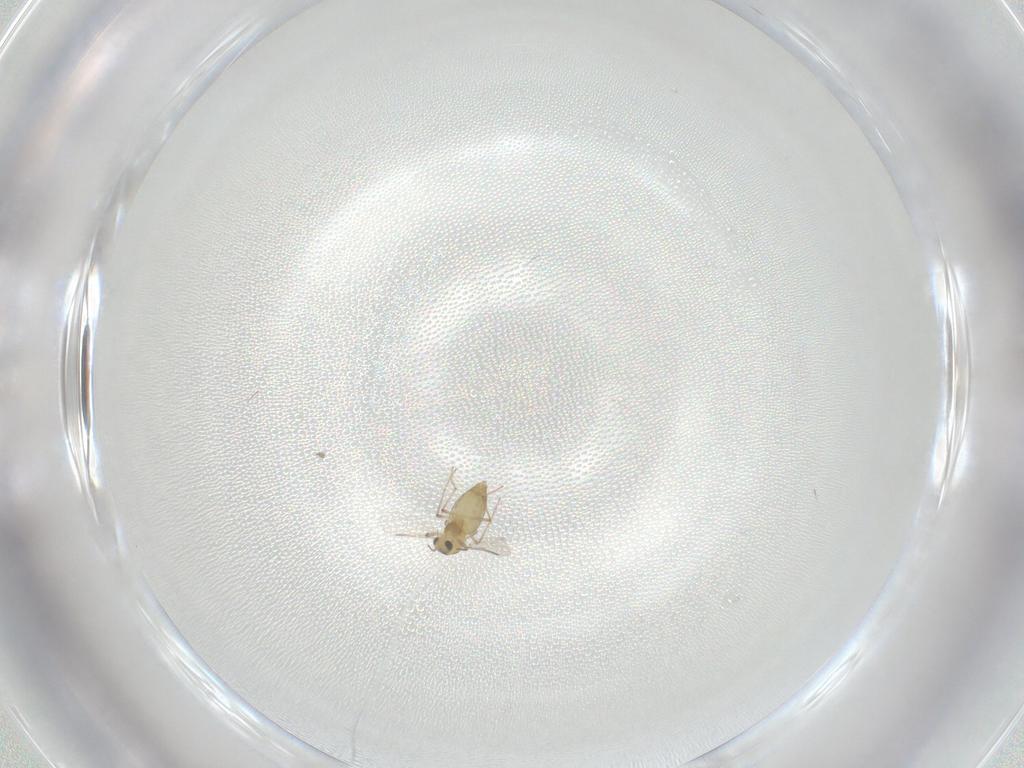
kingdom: Animalia
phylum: Arthropoda
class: Insecta
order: Diptera
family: Chironomidae
